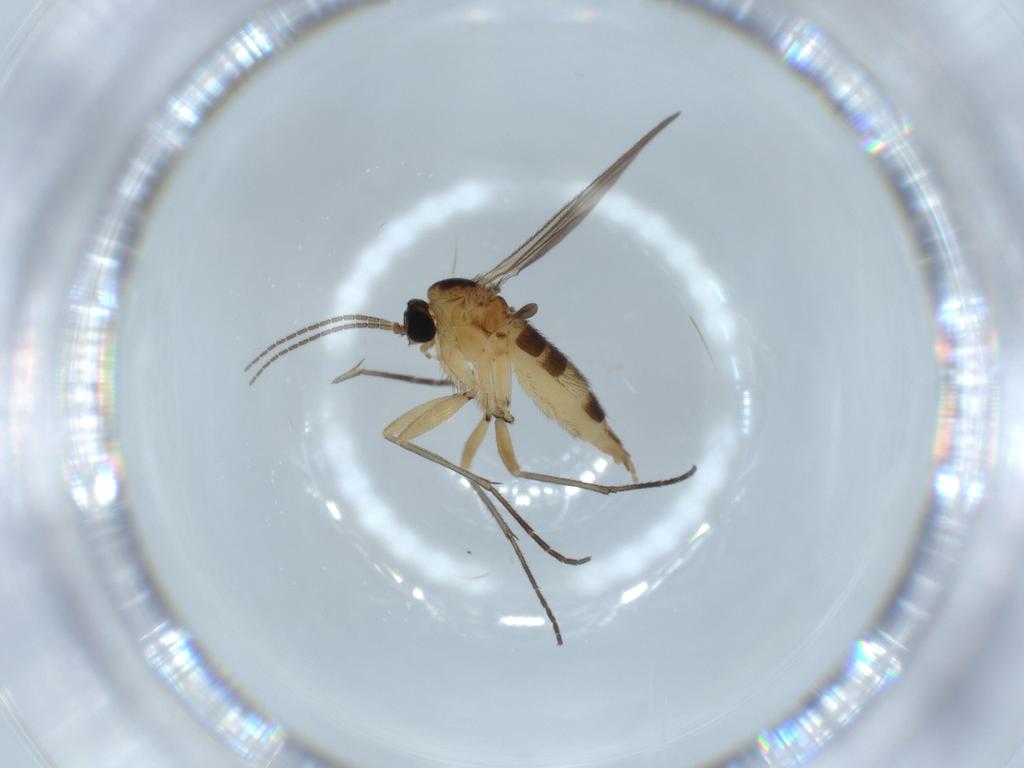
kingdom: Animalia
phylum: Arthropoda
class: Insecta
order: Diptera
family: Sciaridae
